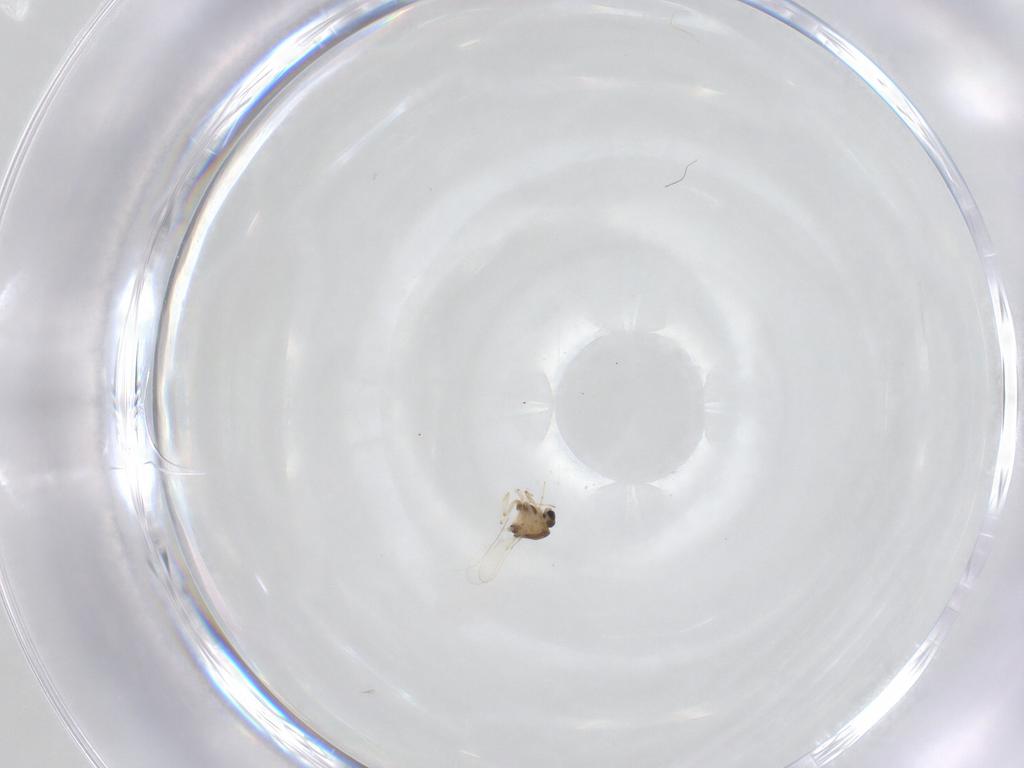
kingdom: Animalia
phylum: Arthropoda
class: Insecta
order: Diptera
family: Chironomidae
